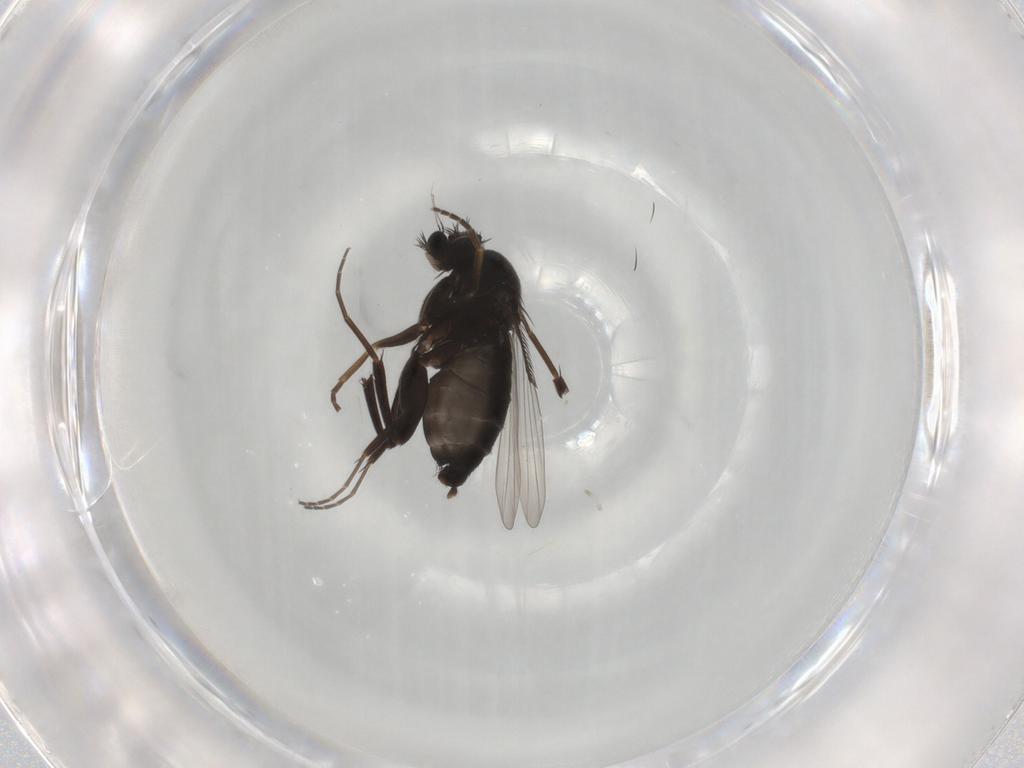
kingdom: Animalia
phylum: Arthropoda
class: Insecta
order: Diptera
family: Phoridae
